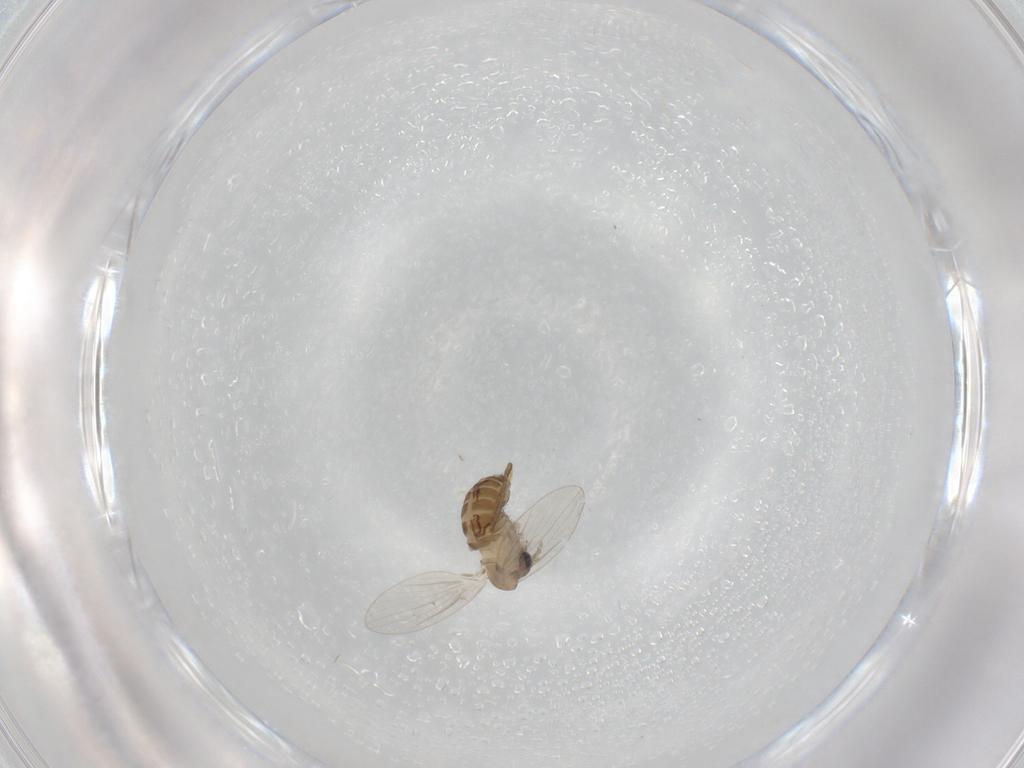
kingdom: Animalia
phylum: Arthropoda
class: Insecta
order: Diptera
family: Psychodidae
